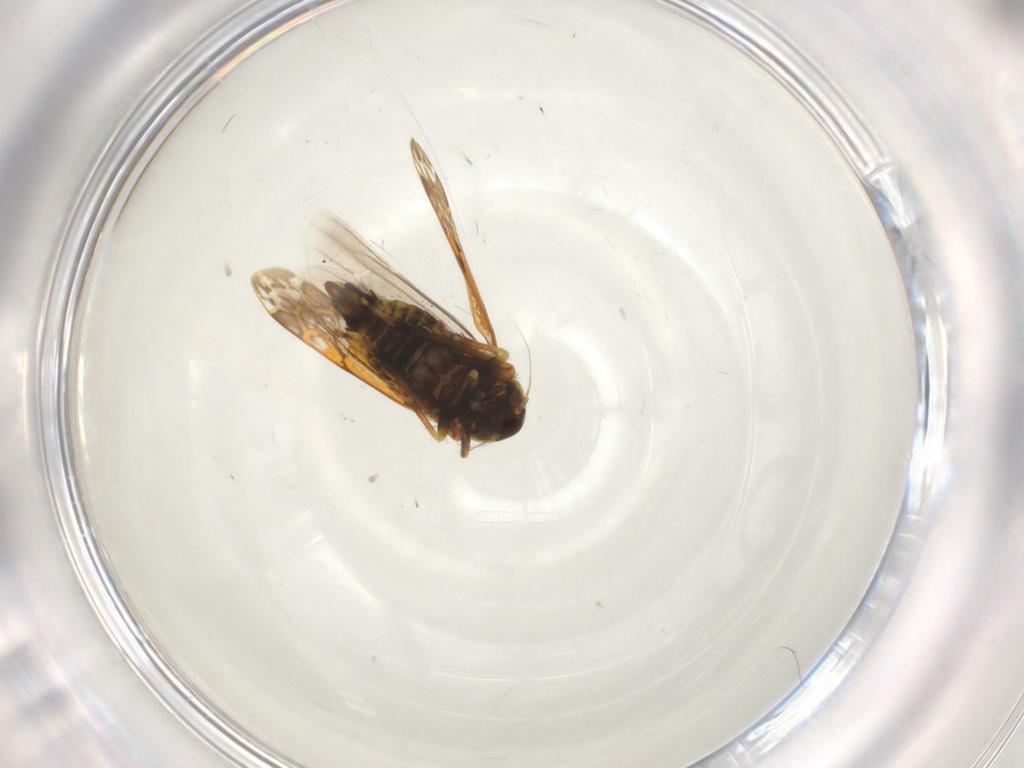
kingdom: Animalia
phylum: Arthropoda
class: Insecta
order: Hemiptera
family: Cicadellidae
